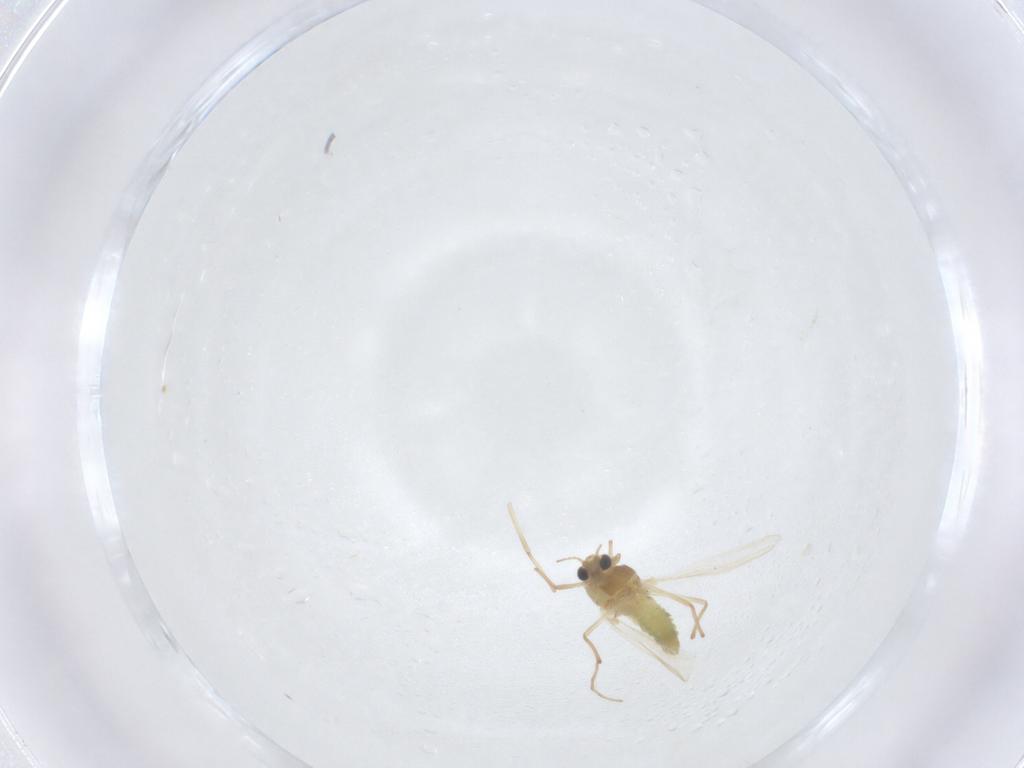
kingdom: Animalia
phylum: Arthropoda
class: Insecta
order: Diptera
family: Chironomidae
